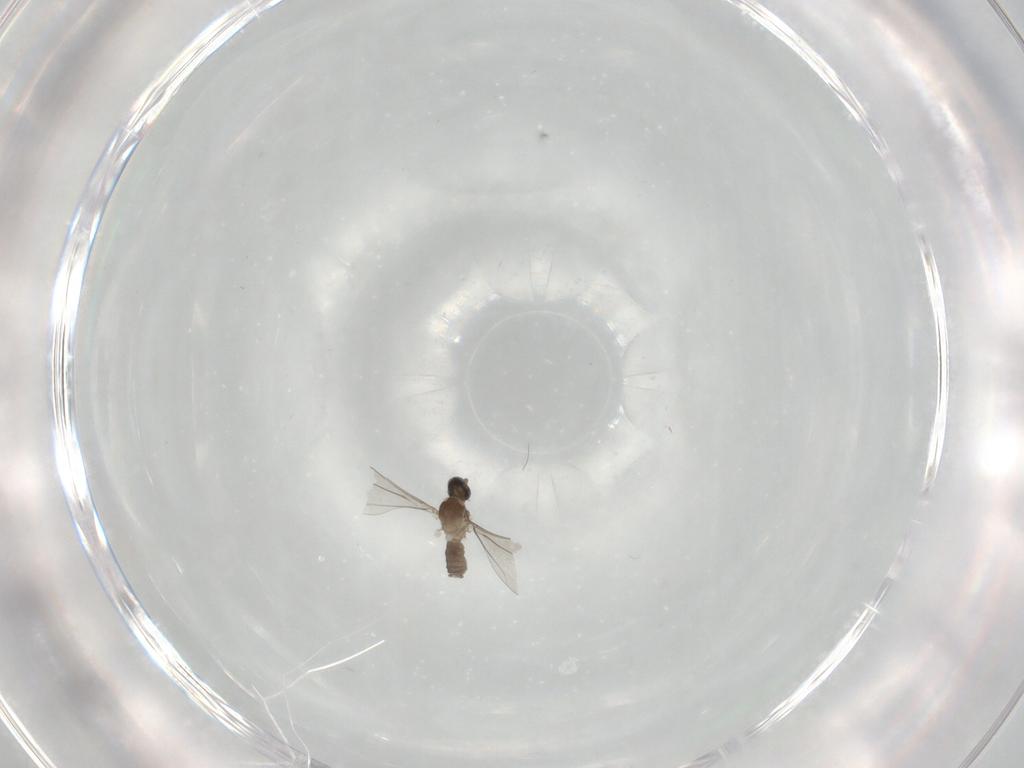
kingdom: Animalia
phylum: Arthropoda
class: Insecta
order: Diptera
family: Cecidomyiidae
